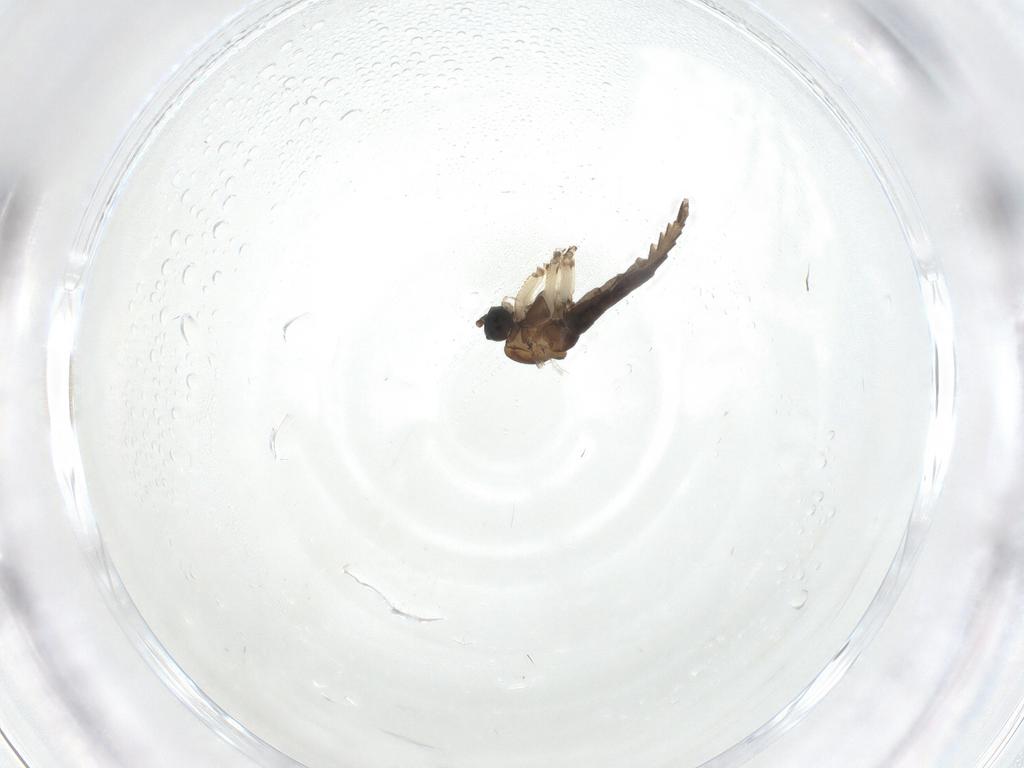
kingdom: Animalia
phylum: Arthropoda
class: Insecta
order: Diptera
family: Sciaridae
